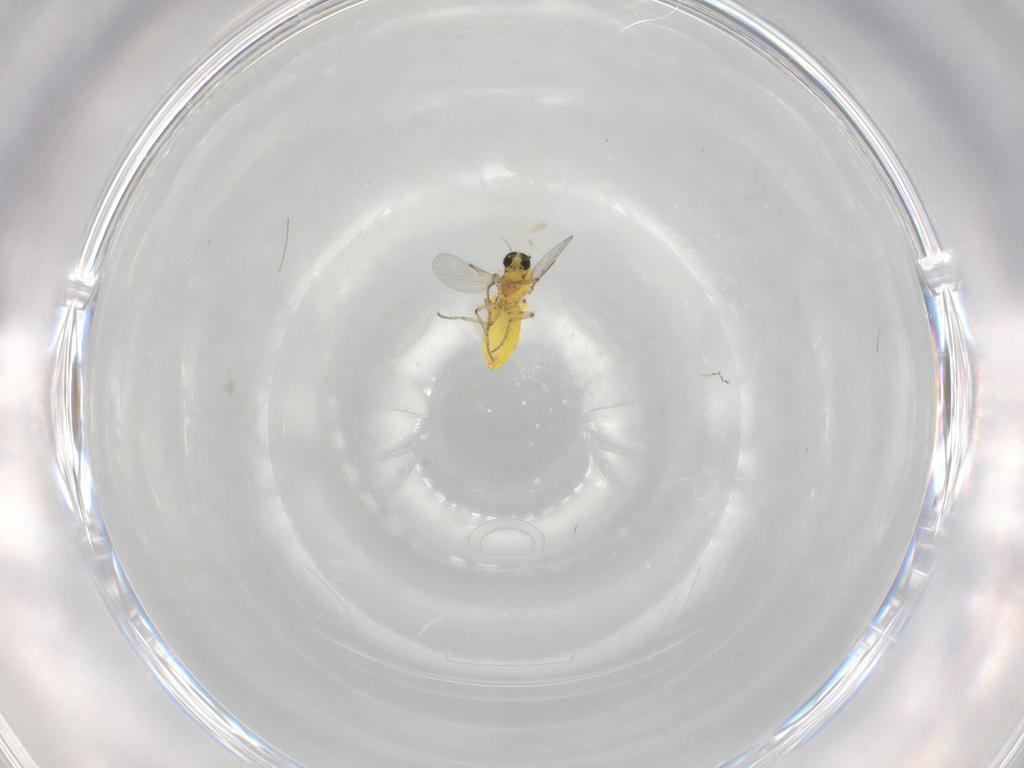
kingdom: Animalia
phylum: Arthropoda
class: Insecta
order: Diptera
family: Ceratopogonidae
